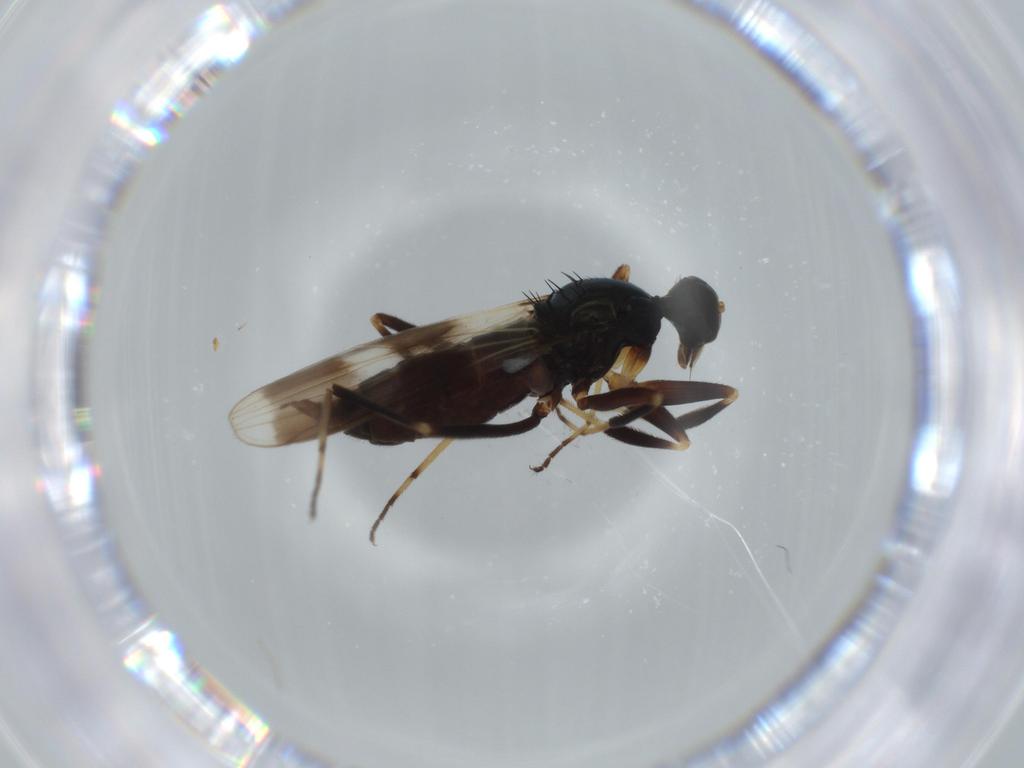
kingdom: Animalia
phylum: Arthropoda
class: Insecta
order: Diptera
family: Hybotidae
